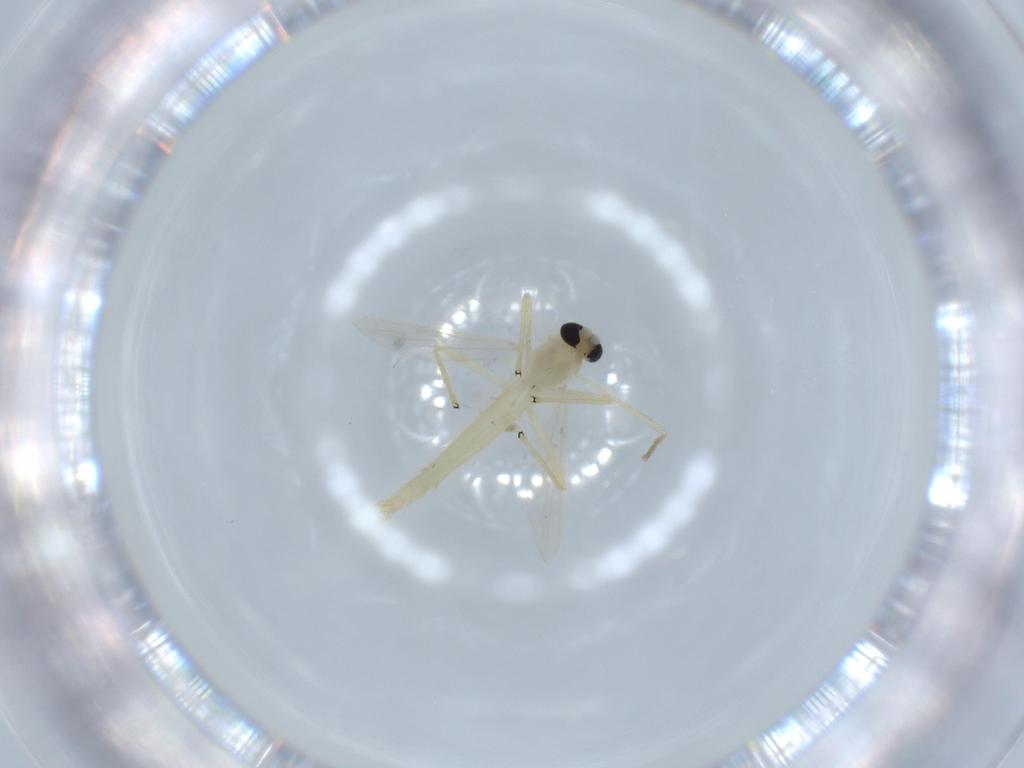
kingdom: Animalia
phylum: Arthropoda
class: Insecta
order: Diptera
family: Chironomidae
